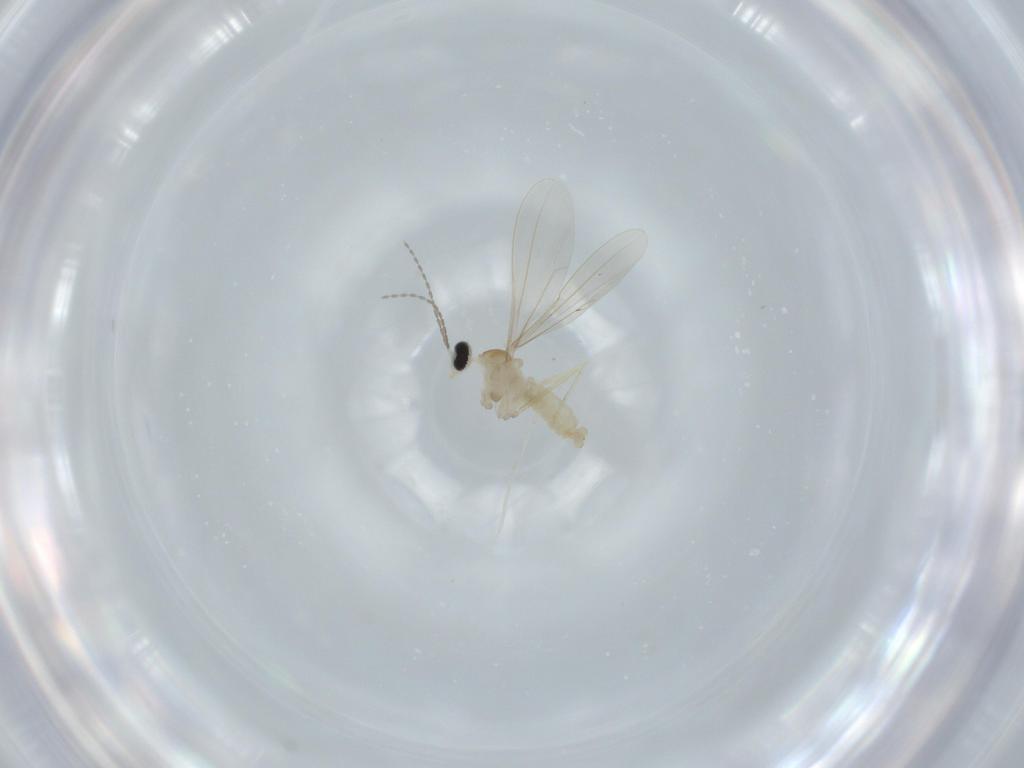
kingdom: Animalia
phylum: Arthropoda
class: Insecta
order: Diptera
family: Cecidomyiidae
